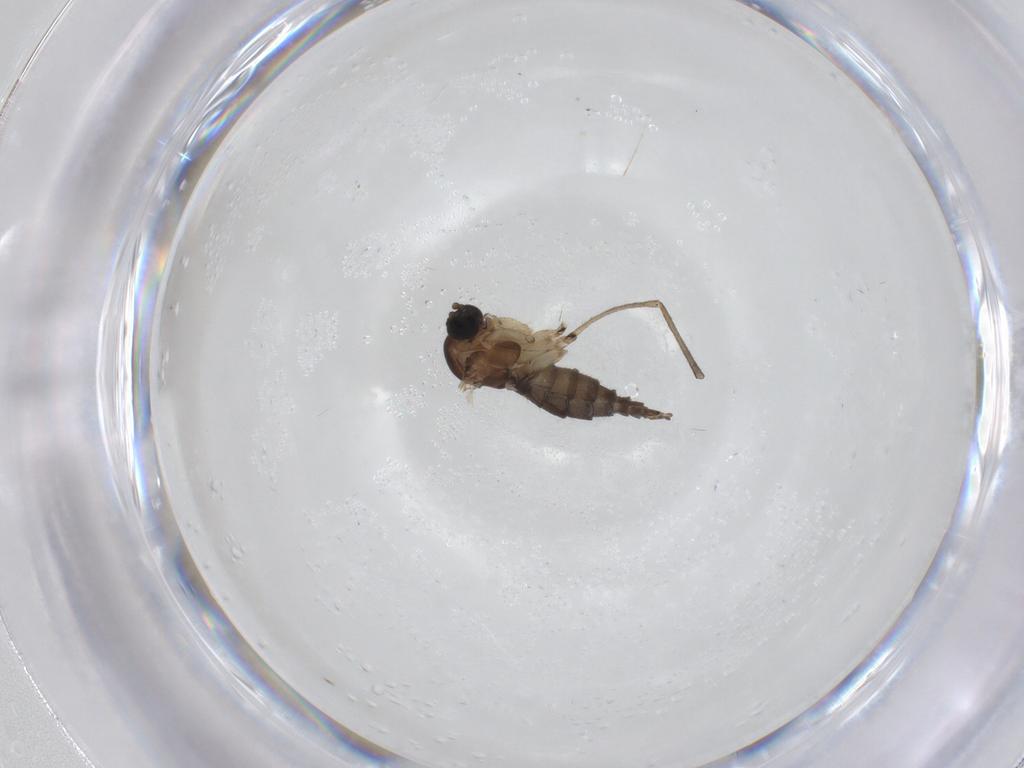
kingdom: Animalia
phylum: Arthropoda
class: Insecta
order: Diptera
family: Sciaridae
